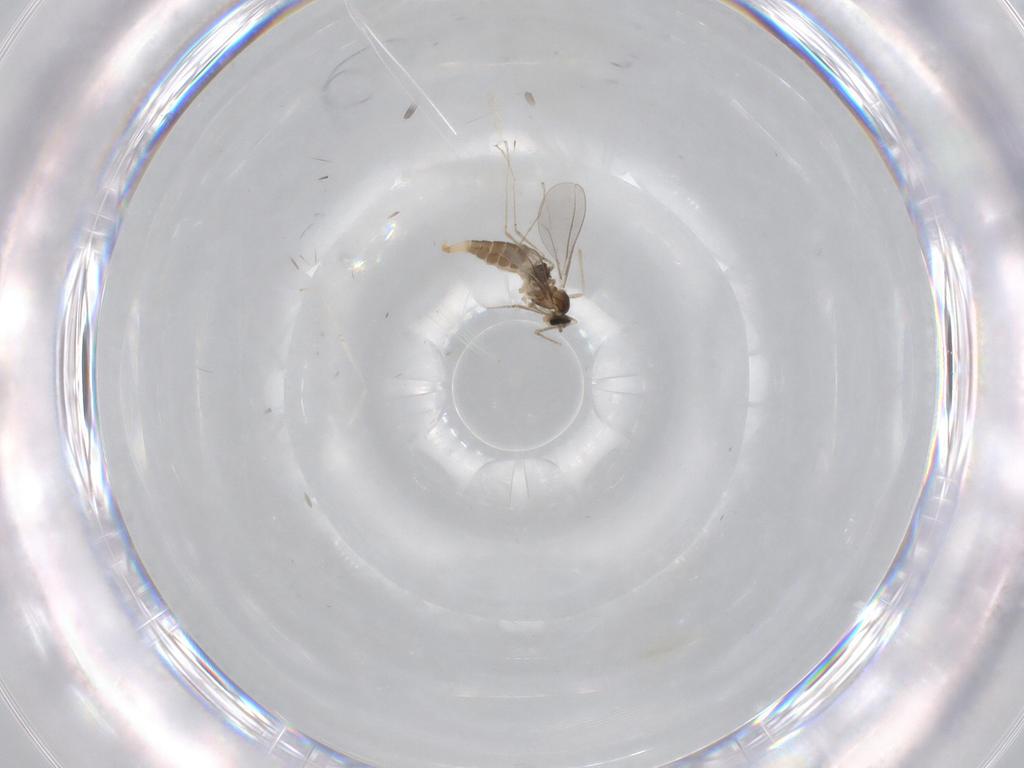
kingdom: Animalia
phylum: Arthropoda
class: Insecta
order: Diptera
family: Cecidomyiidae
